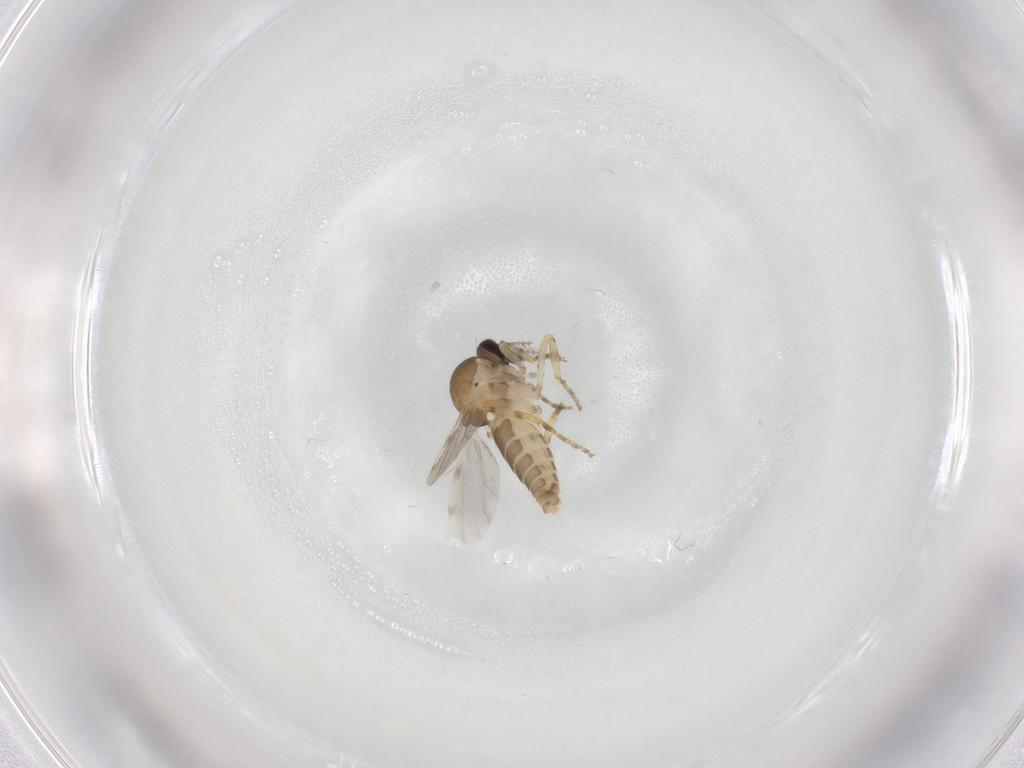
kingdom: Animalia
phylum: Arthropoda
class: Insecta
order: Diptera
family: Ceratopogonidae
